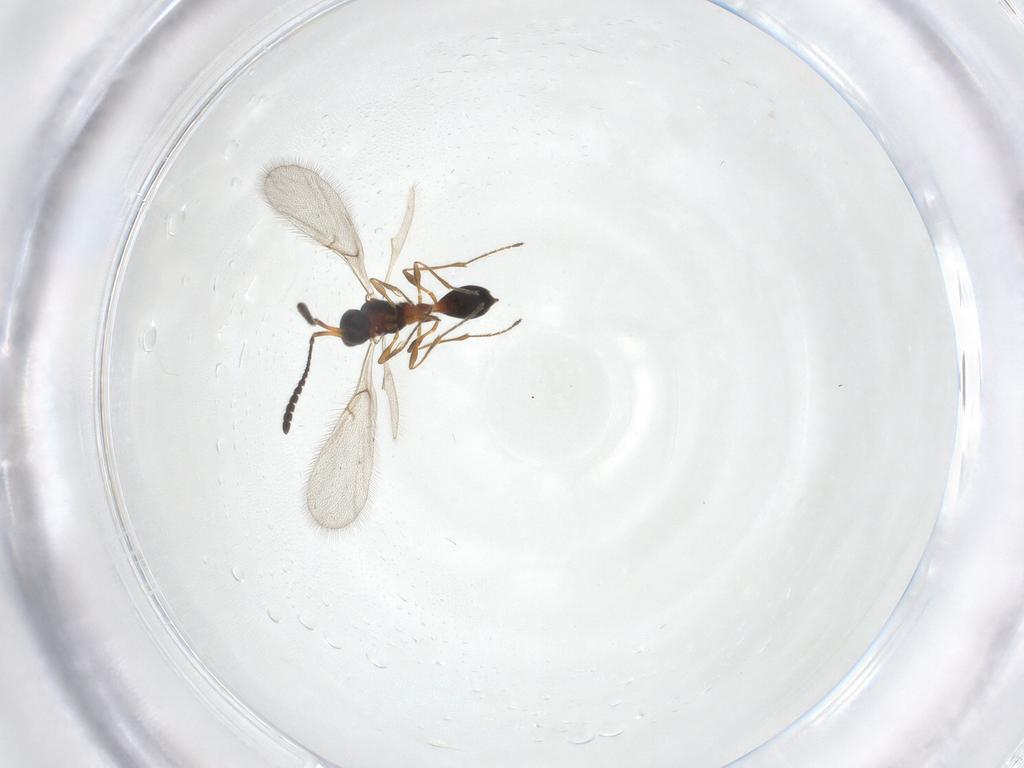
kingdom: Animalia
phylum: Arthropoda
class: Insecta
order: Hymenoptera
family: Diapriidae
